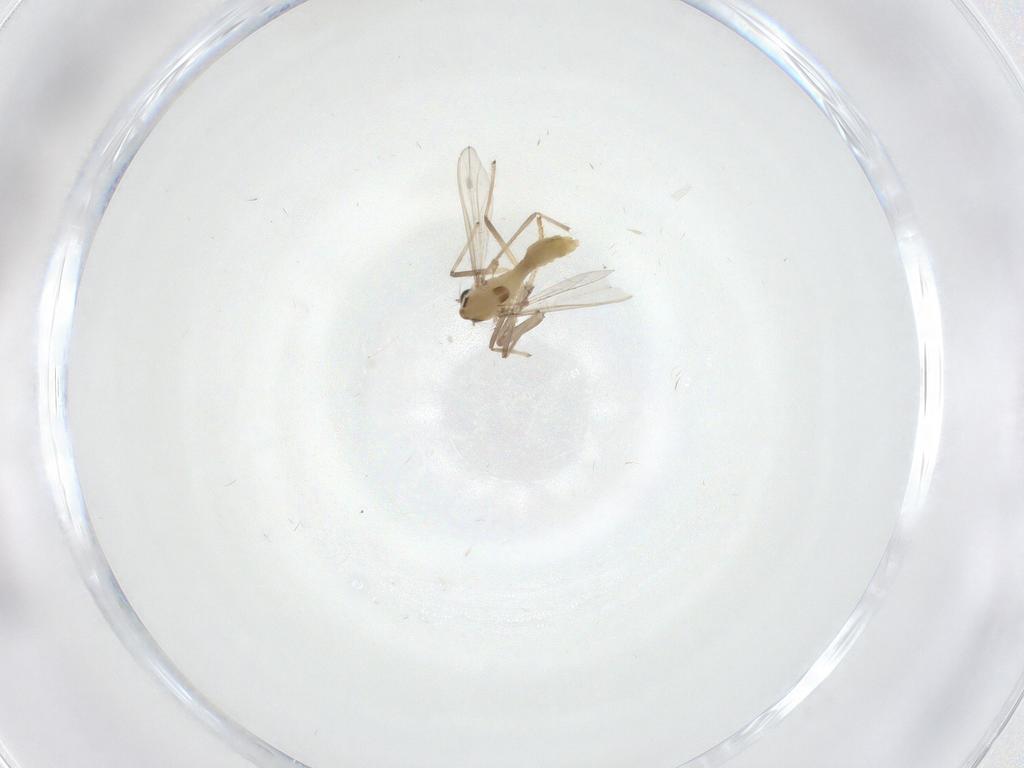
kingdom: Animalia
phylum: Arthropoda
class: Insecta
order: Diptera
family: Chironomidae
